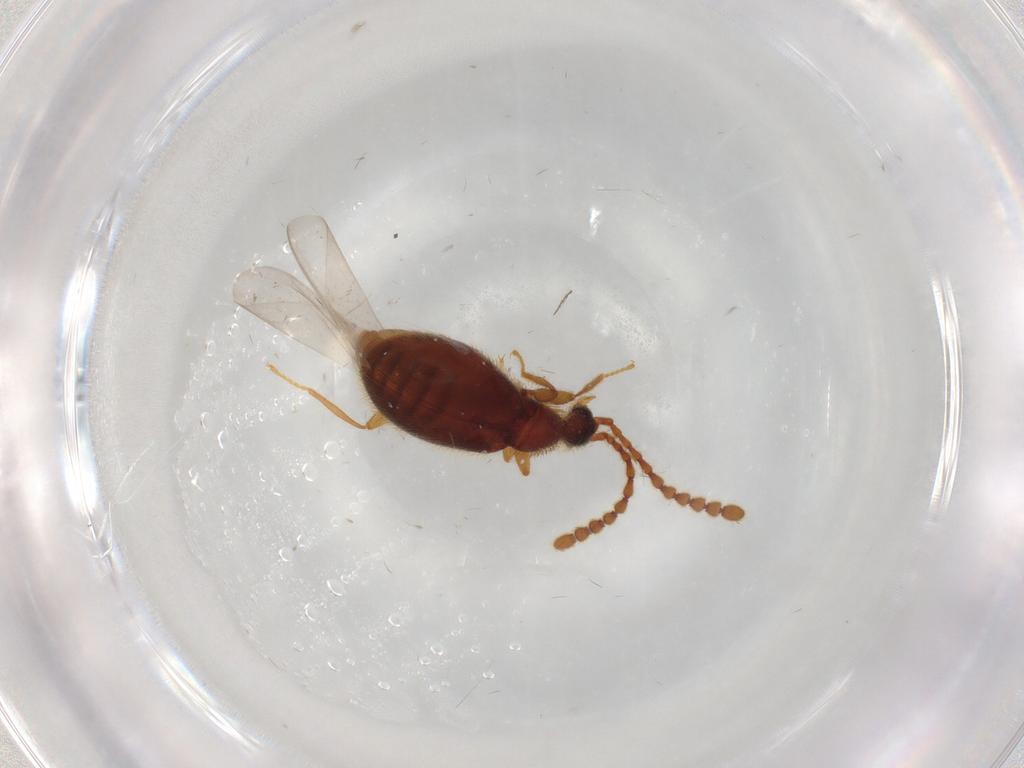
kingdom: Animalia
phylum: Arthropoda
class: Insecta
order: Coleoptera
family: Staphylinidae
